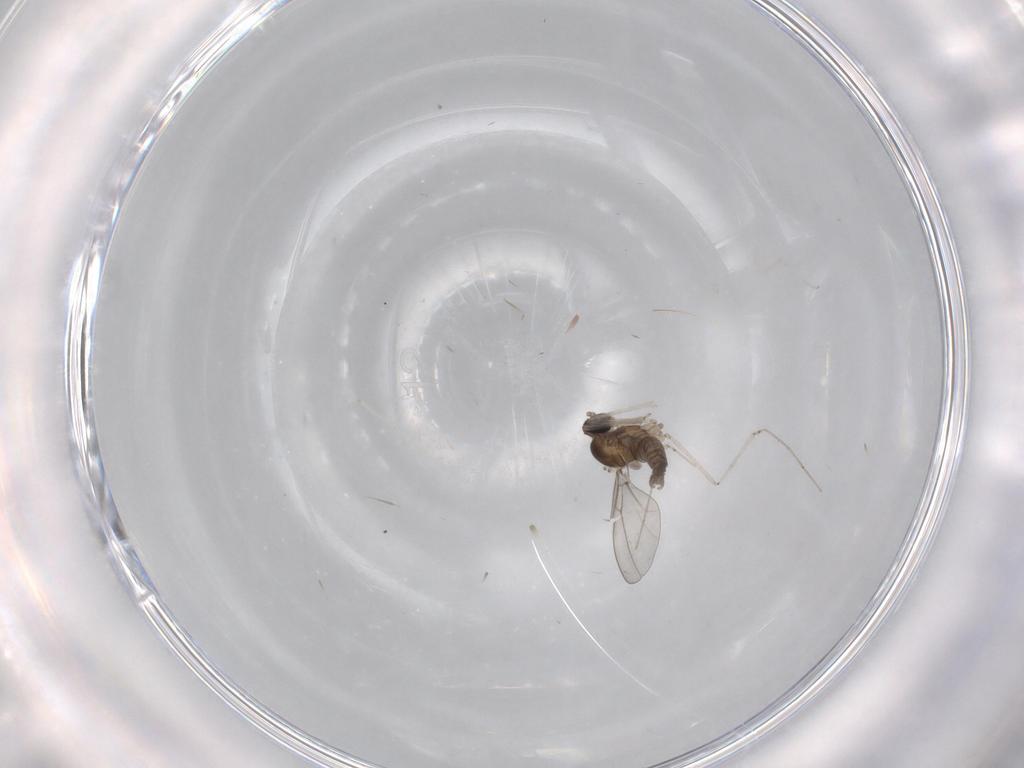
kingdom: Animalia
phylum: Arthropoda
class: Insecta
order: Diptera
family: Cecidomyiidae
